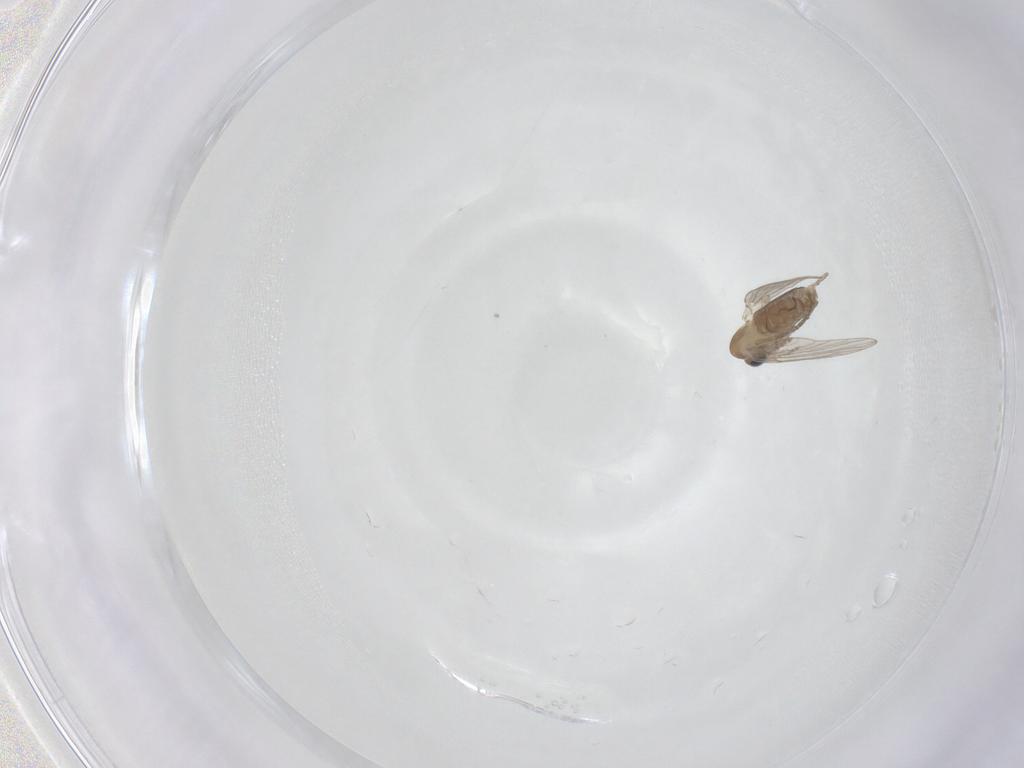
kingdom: Animalia
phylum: Arthropoda
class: Insecta
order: Diptera
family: Psychodidae
